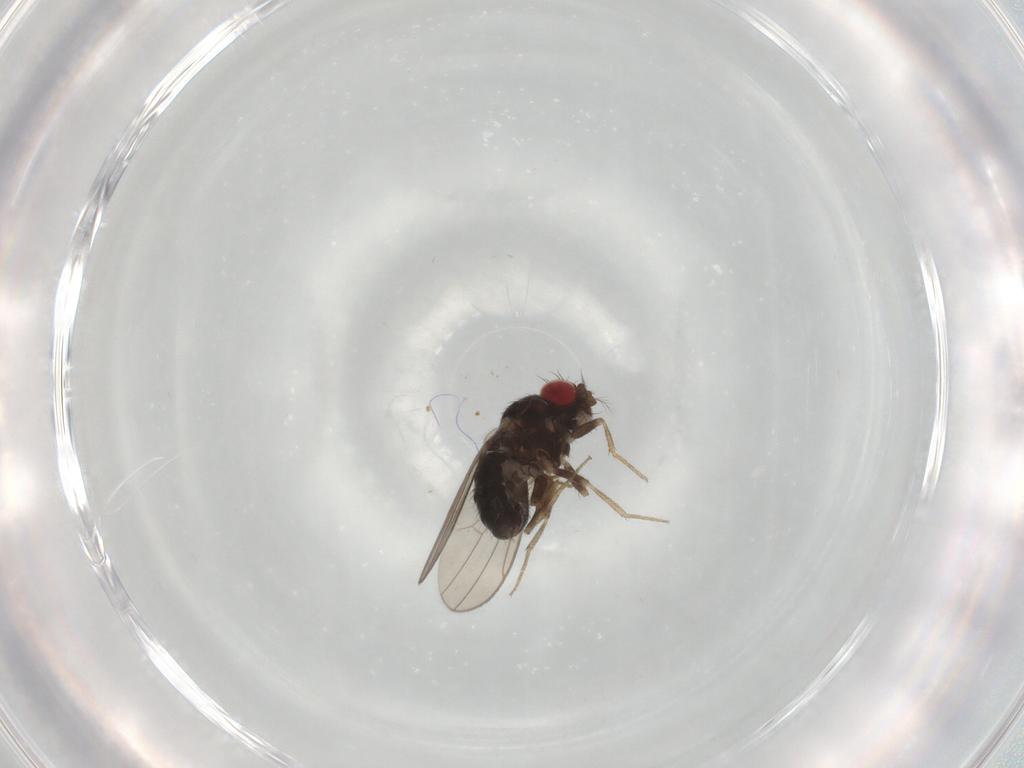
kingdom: Animalia
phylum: Arthropoda
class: Insecta
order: Diptera
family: Drosophilidae
